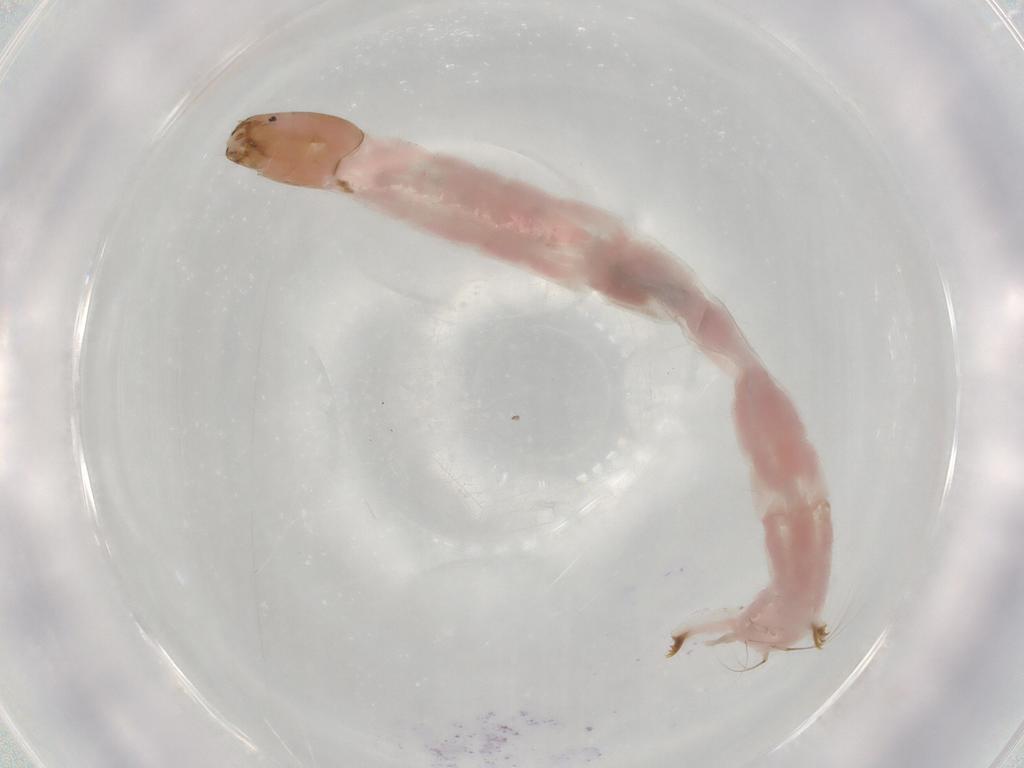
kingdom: Animalia
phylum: Arthropoda
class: Insecta
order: Diptera
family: Chironomidae
